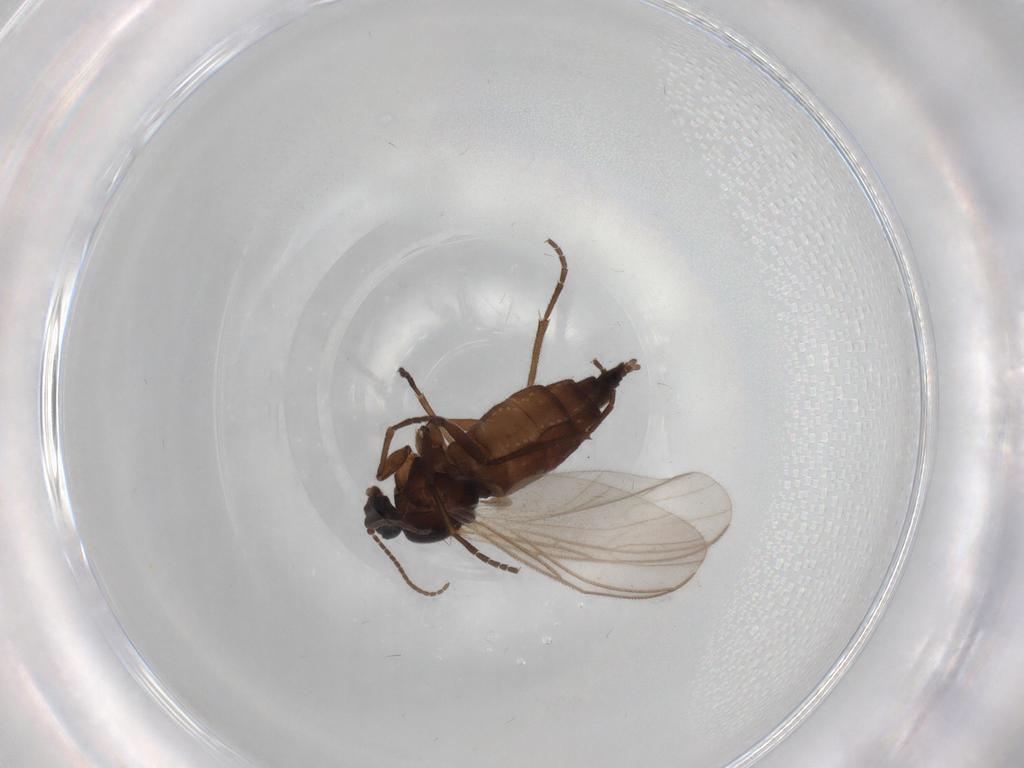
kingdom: Animalia
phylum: Arthropoda
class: Insecta
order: Diptera
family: Sciaridae
